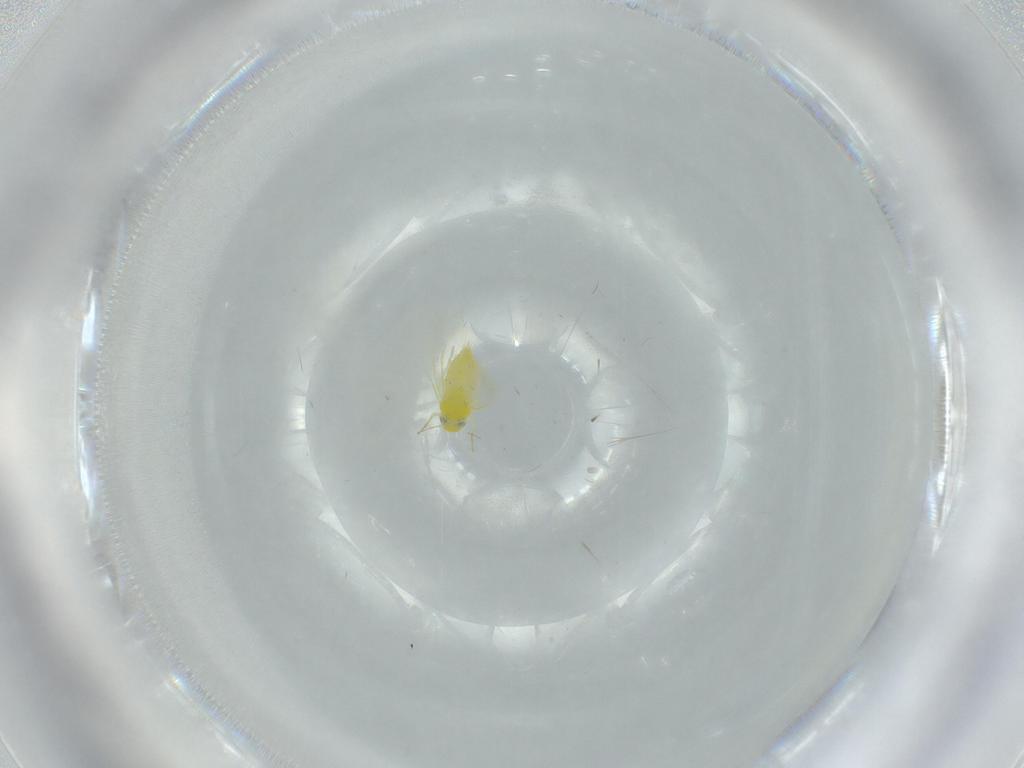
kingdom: Animalia
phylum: Arthropoda
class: Insecta
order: Hemiptera
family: Aleyrodidae
